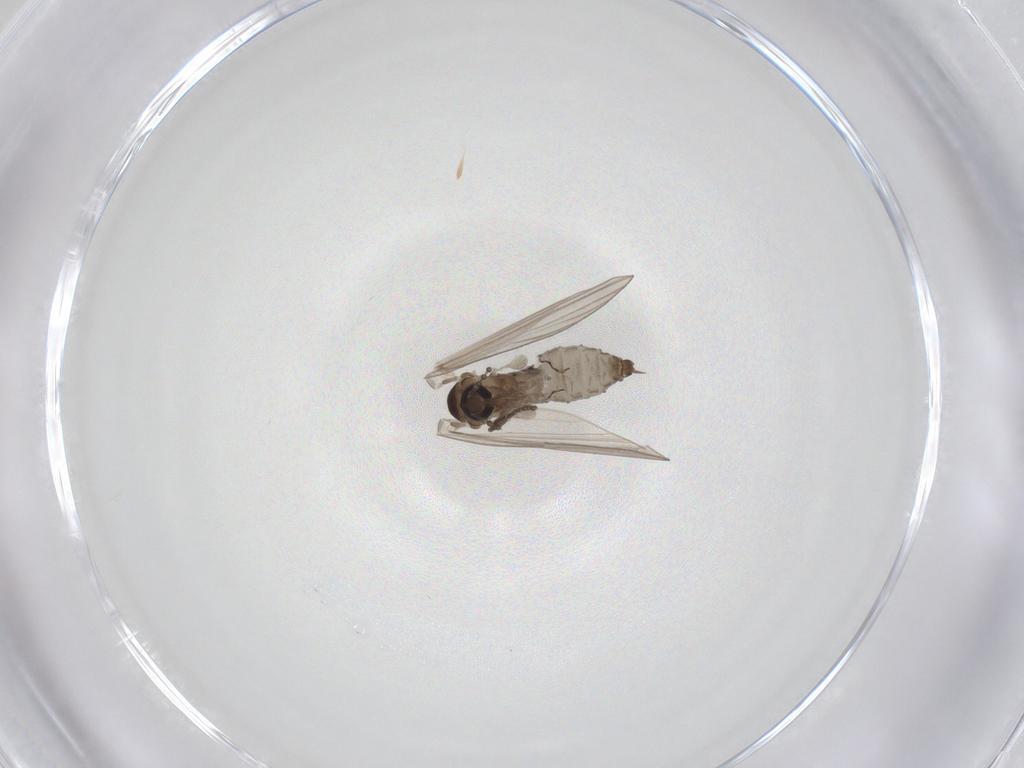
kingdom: Animalia
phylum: Arthropoda
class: Insecta
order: Diptera
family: Psychodidae
